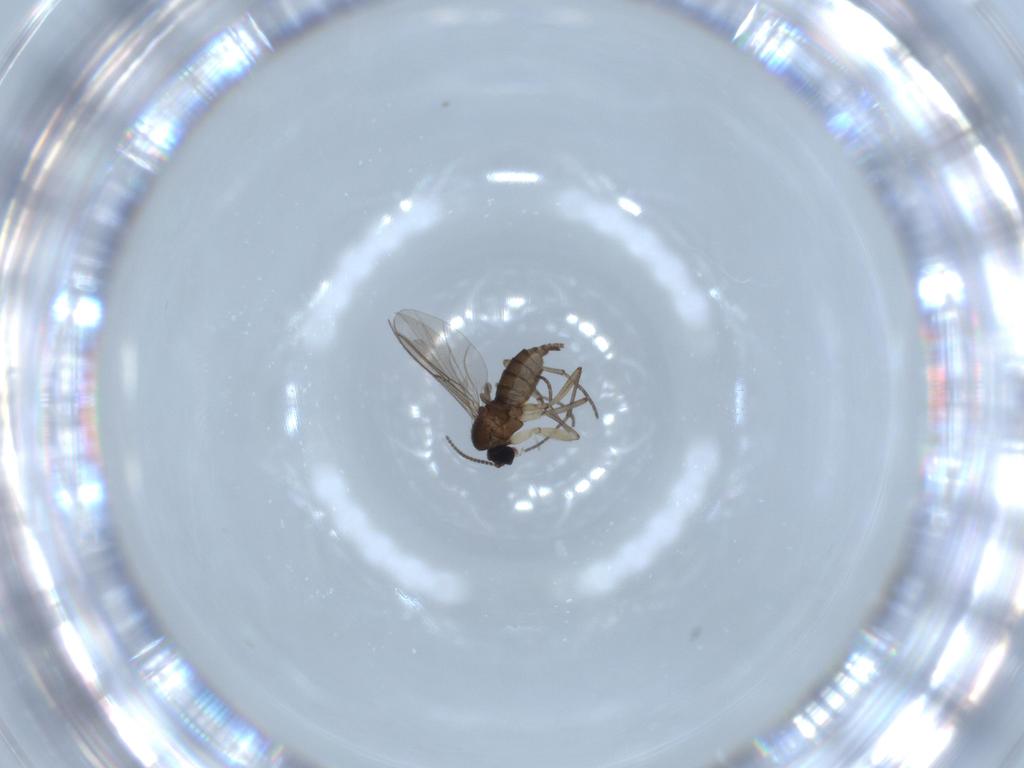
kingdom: Animalia
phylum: Arthropoda
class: Insecta
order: Diptera
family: Sciaridae
